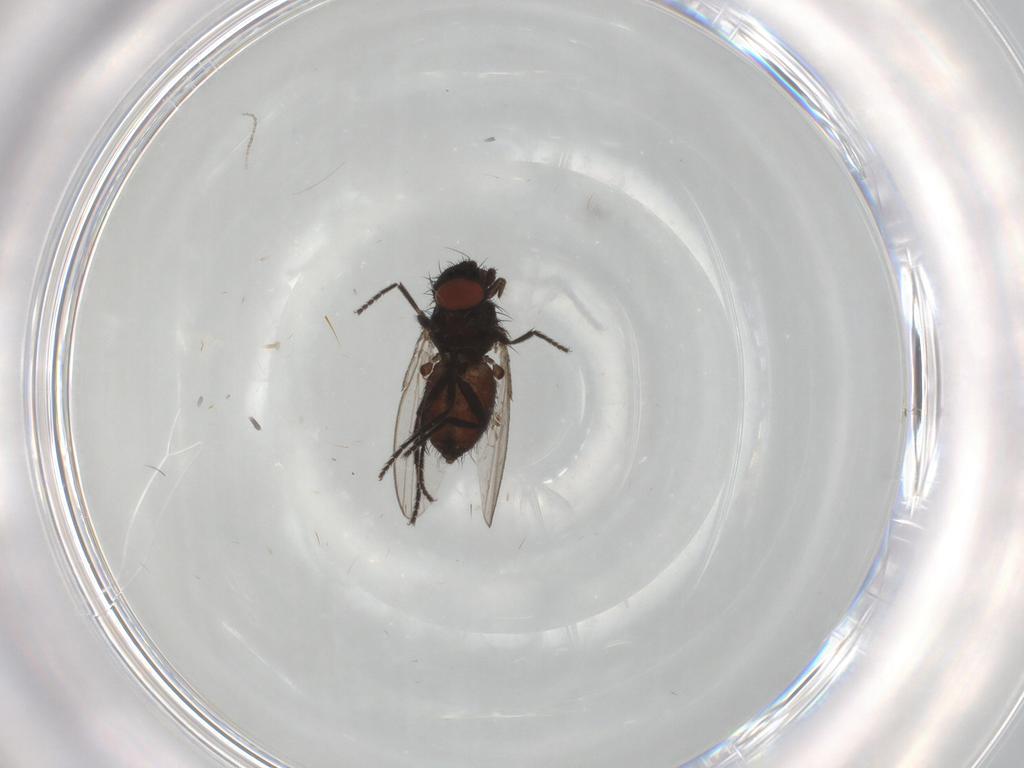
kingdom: Animalia
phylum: Arthropoda
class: Insecta
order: Diptera
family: Milichiidae
